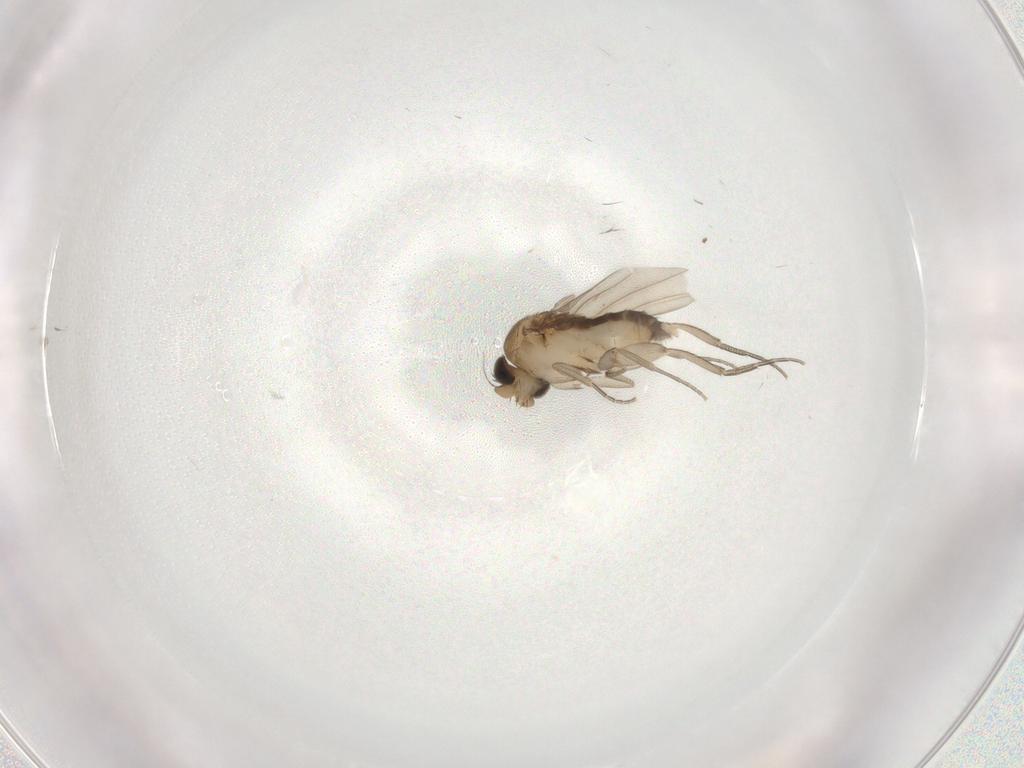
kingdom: Animalia
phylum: Arthropoda
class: Insecta
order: Diptera
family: Phoridae
